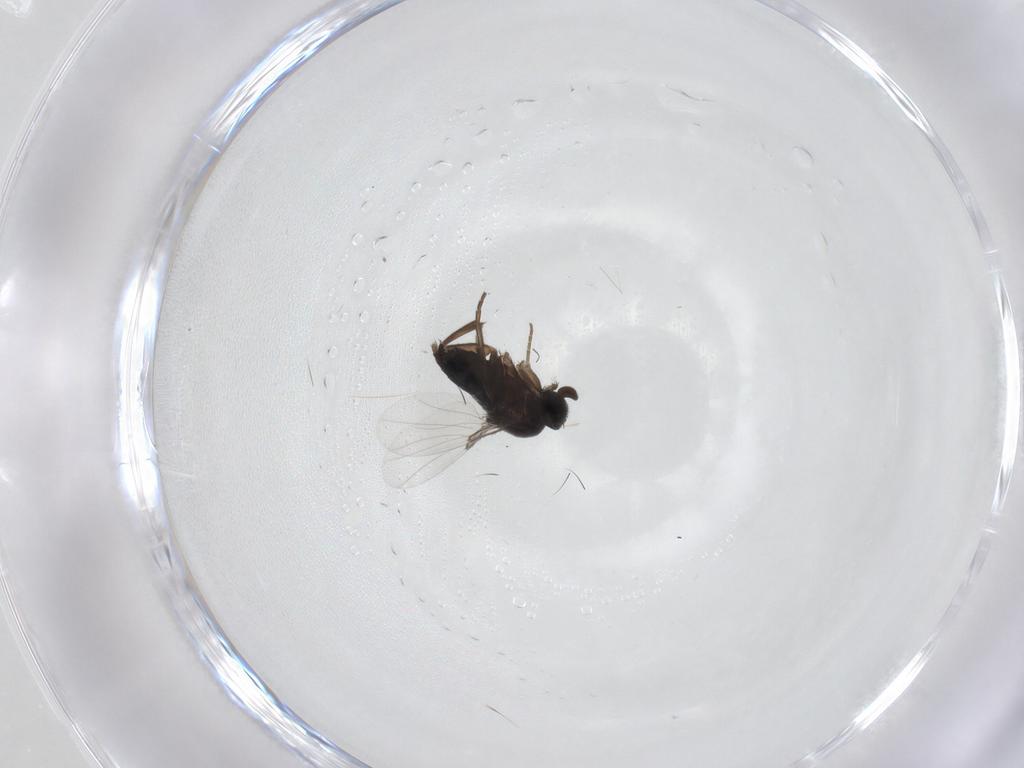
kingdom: Animalia
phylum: Arthropoda
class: Insecta
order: Diptera
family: Phoridae
